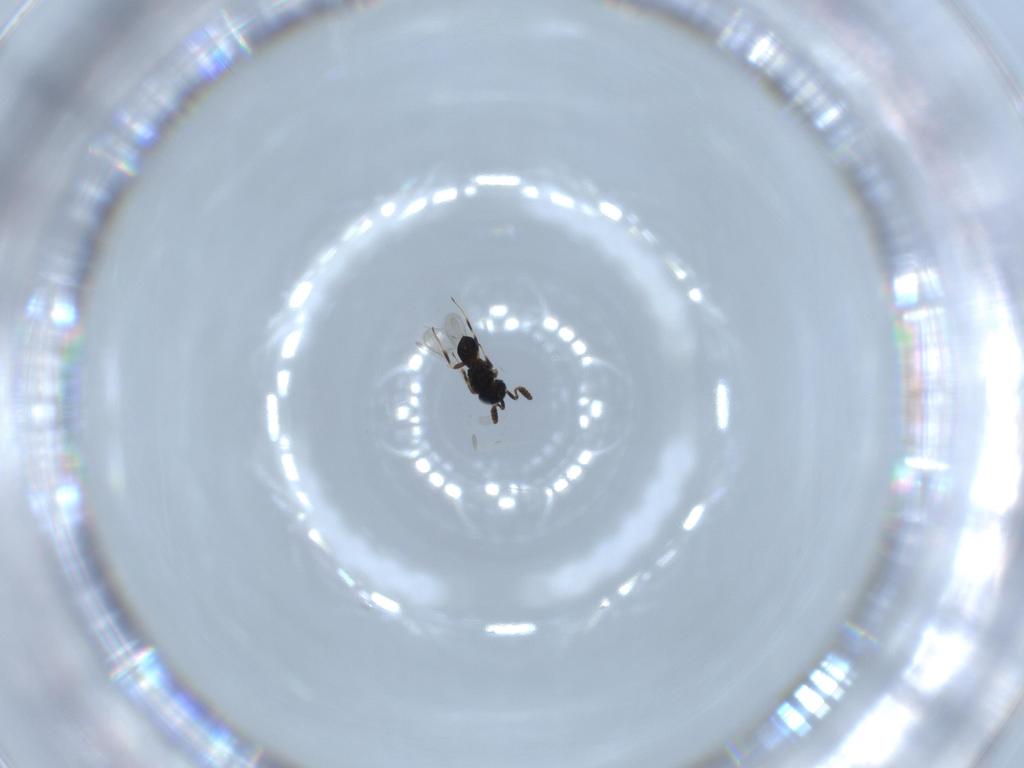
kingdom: Animalia
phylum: Arthropoda
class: Insecta
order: Hymenoptera
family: Scelionidae
